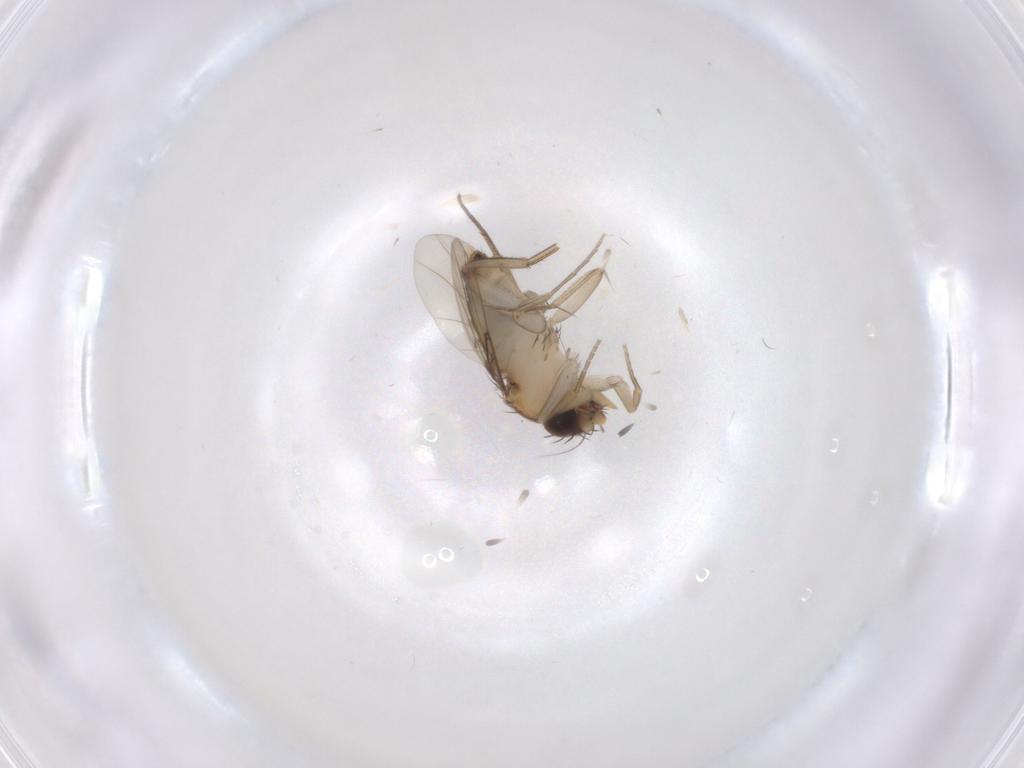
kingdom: Animalia
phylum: Arthropoda
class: Insecta
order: Diptera
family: Phoridae
